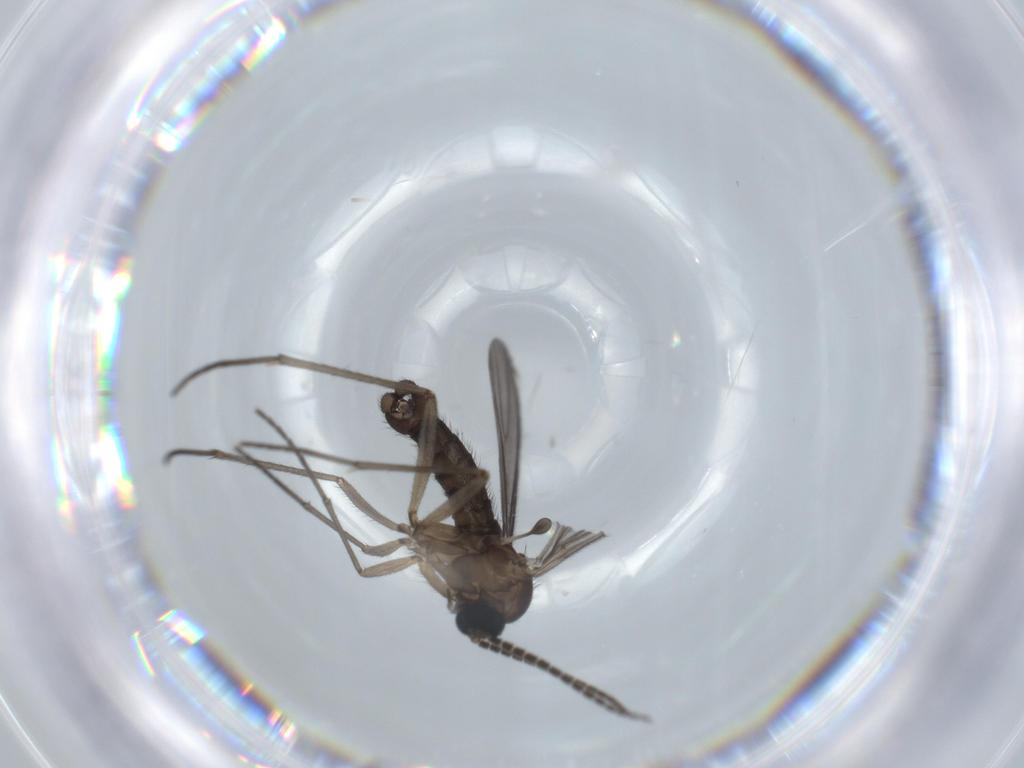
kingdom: Animalia
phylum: Arthropoda
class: Insecta
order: Diptera
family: Sciaridae
